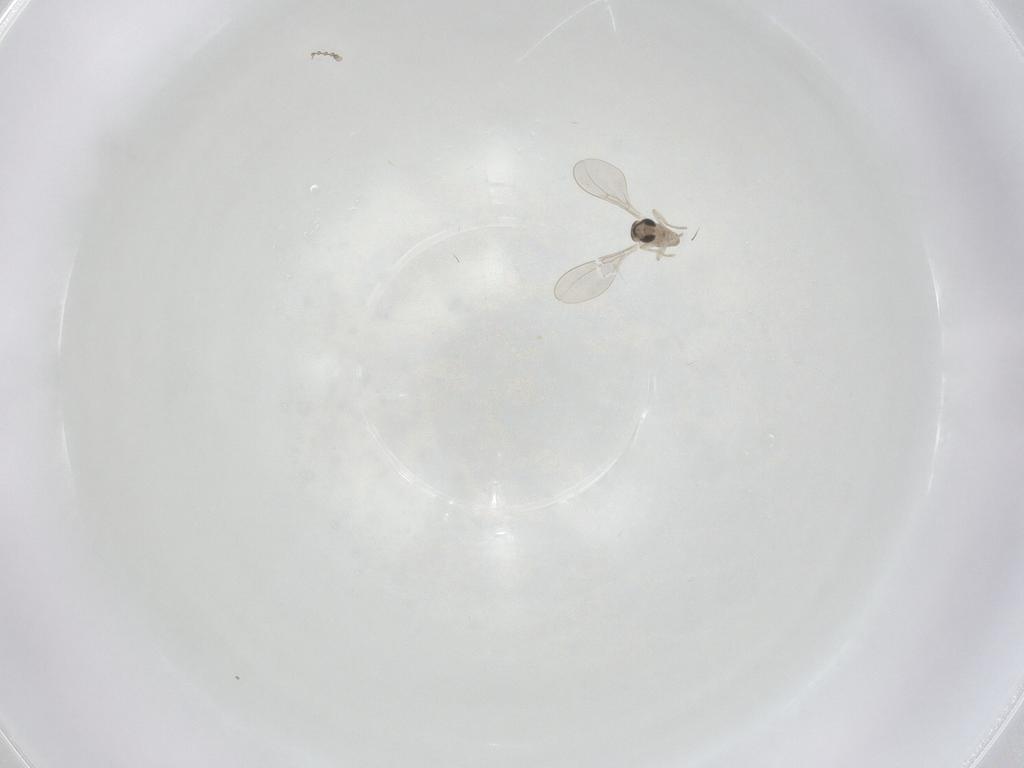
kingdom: Animalia
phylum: Arthropoda
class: Insecta
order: Diptera
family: Cecidomyiidae
